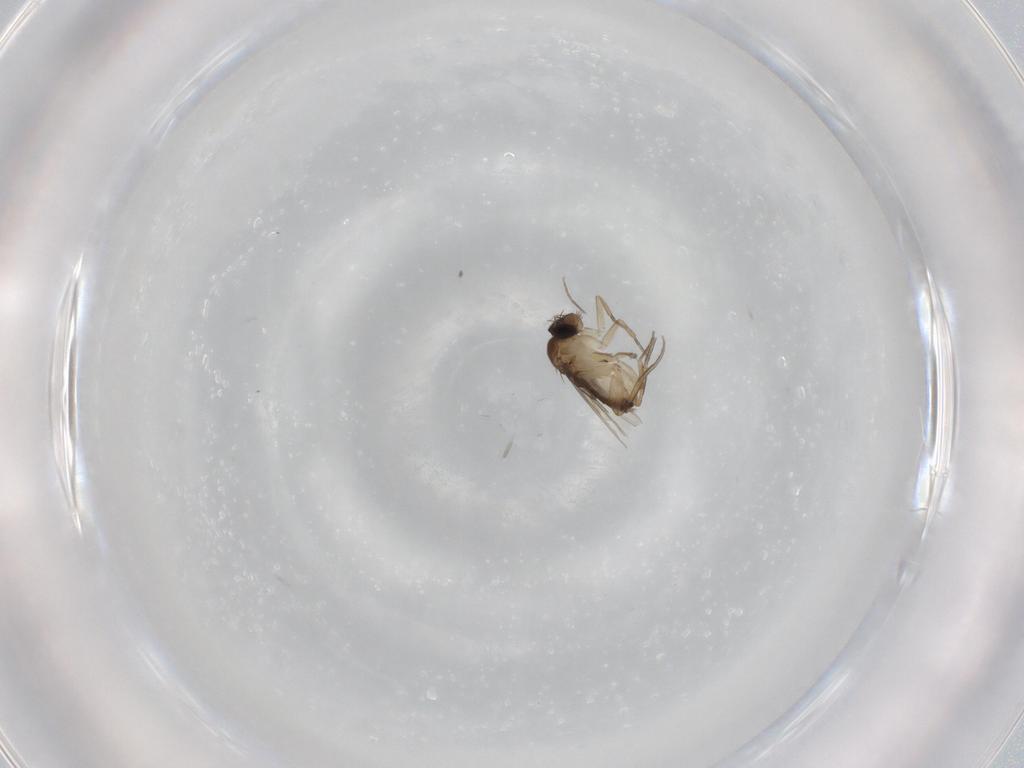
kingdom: Animalia
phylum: Arthropoda
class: Insecta
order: Diptera
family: Phoridae
